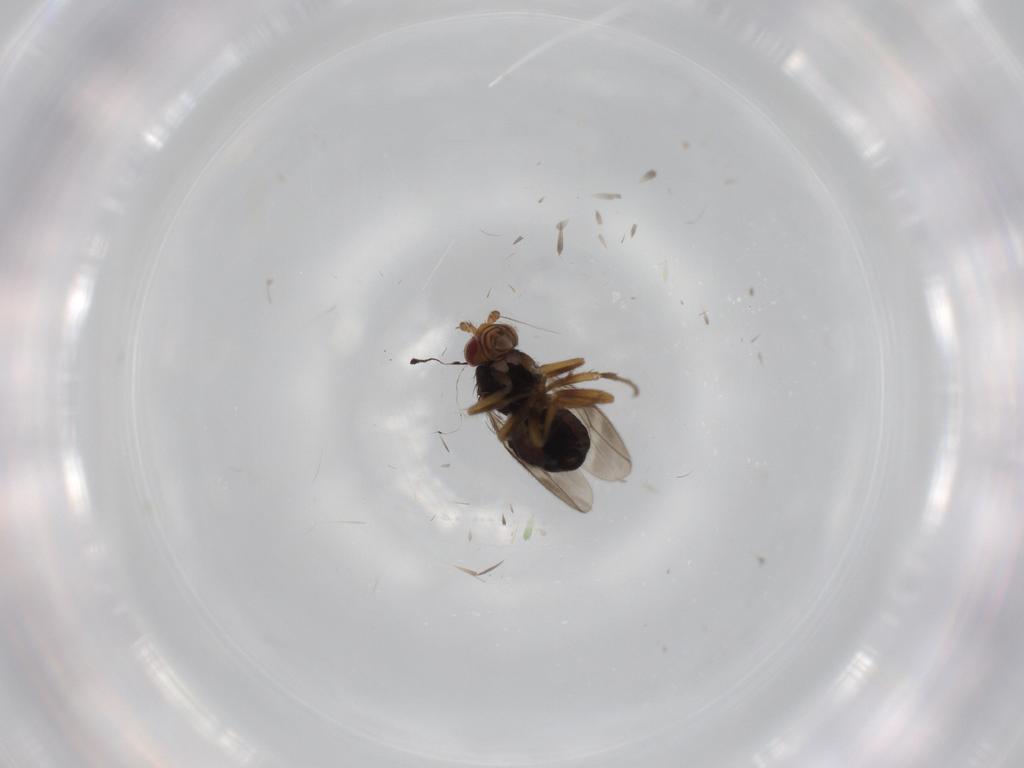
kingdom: Animalia
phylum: Arthropoda
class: Insecta
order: Diptera
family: Sphaeroceridae
